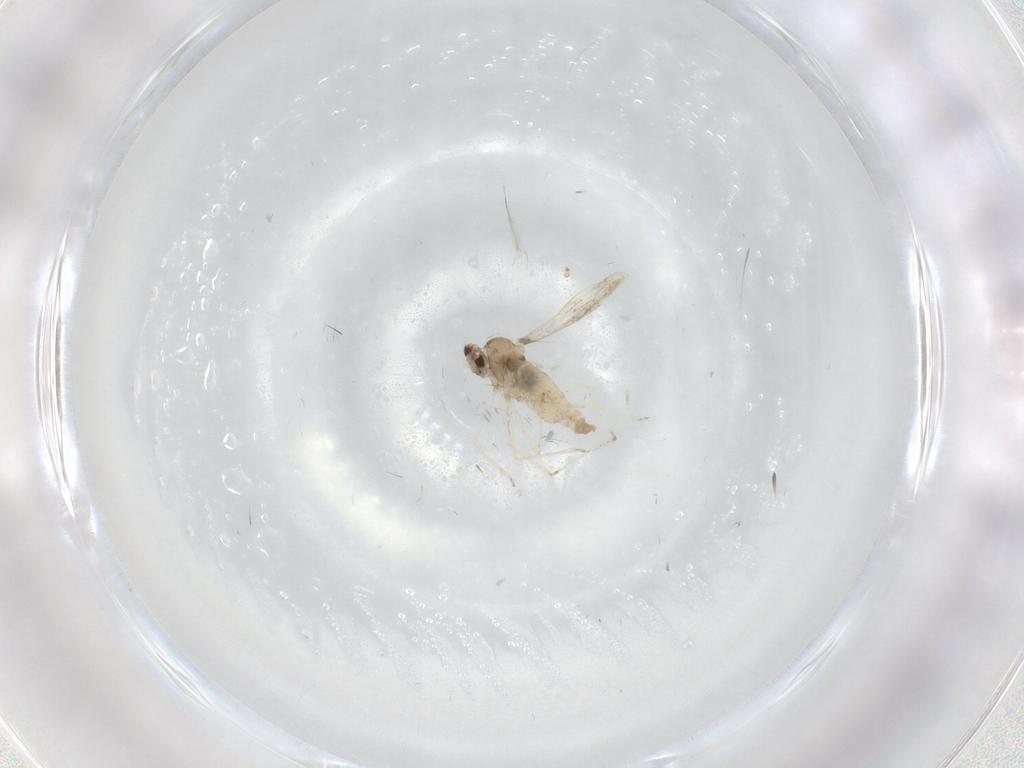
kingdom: Animalia
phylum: Arthropoda
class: Insecta
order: Diptera
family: Cecidomyiidae
